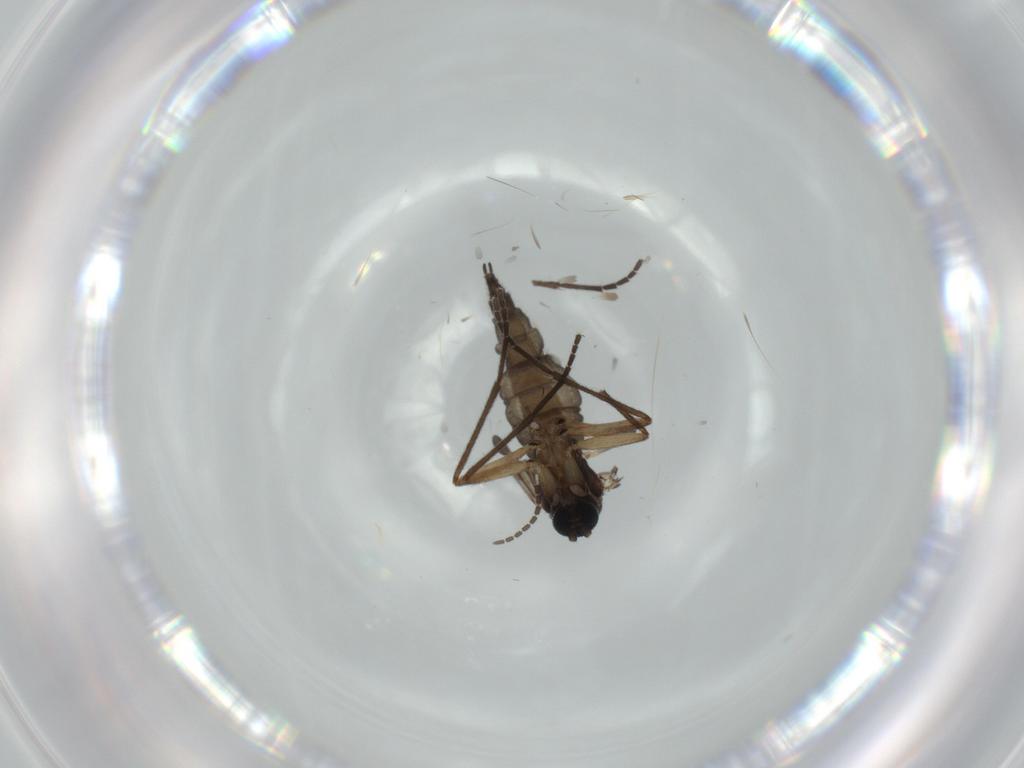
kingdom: Animalia
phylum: Arthropoda
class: Insecta
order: Diptera
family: Sciaridae
